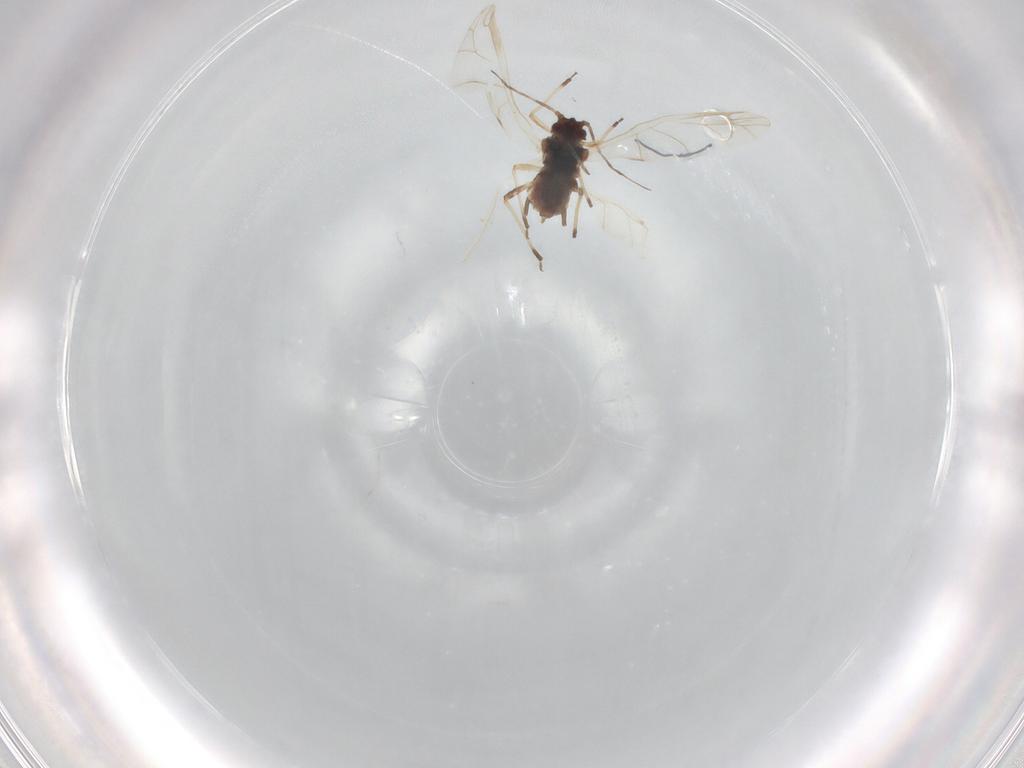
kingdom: Animalia
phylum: Arthropoda
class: Insecta
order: Hemiptera
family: Aphididae
